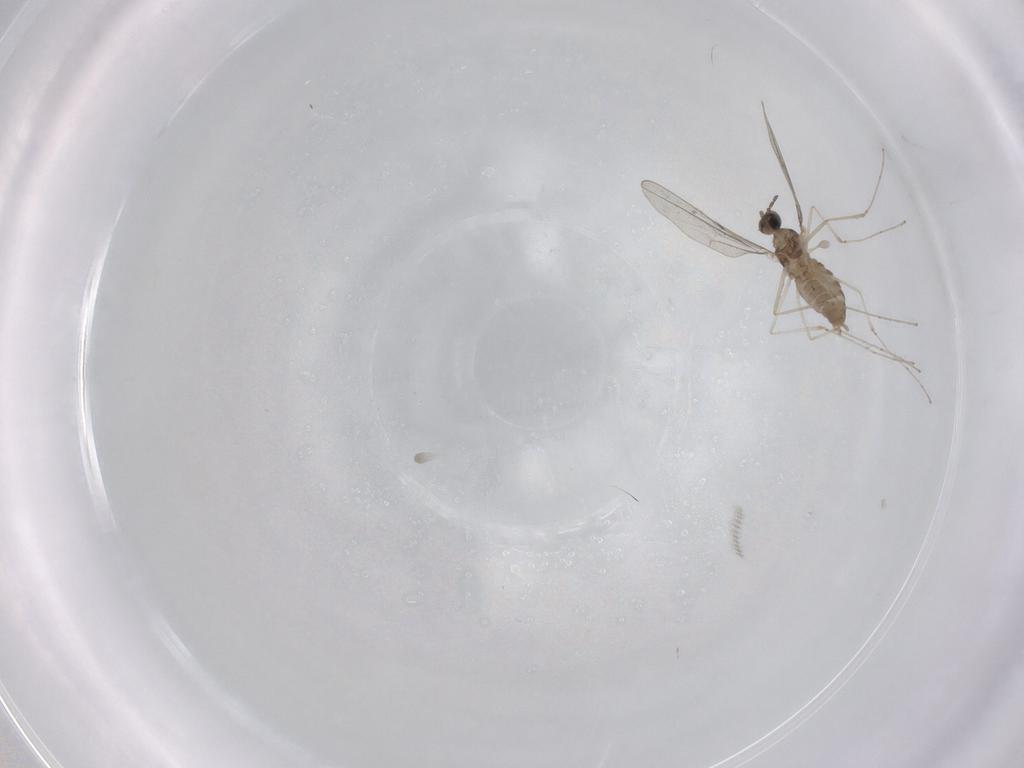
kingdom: Animalia
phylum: Arthropoda
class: Insecta
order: Diptera
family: Cecidomyiidae
